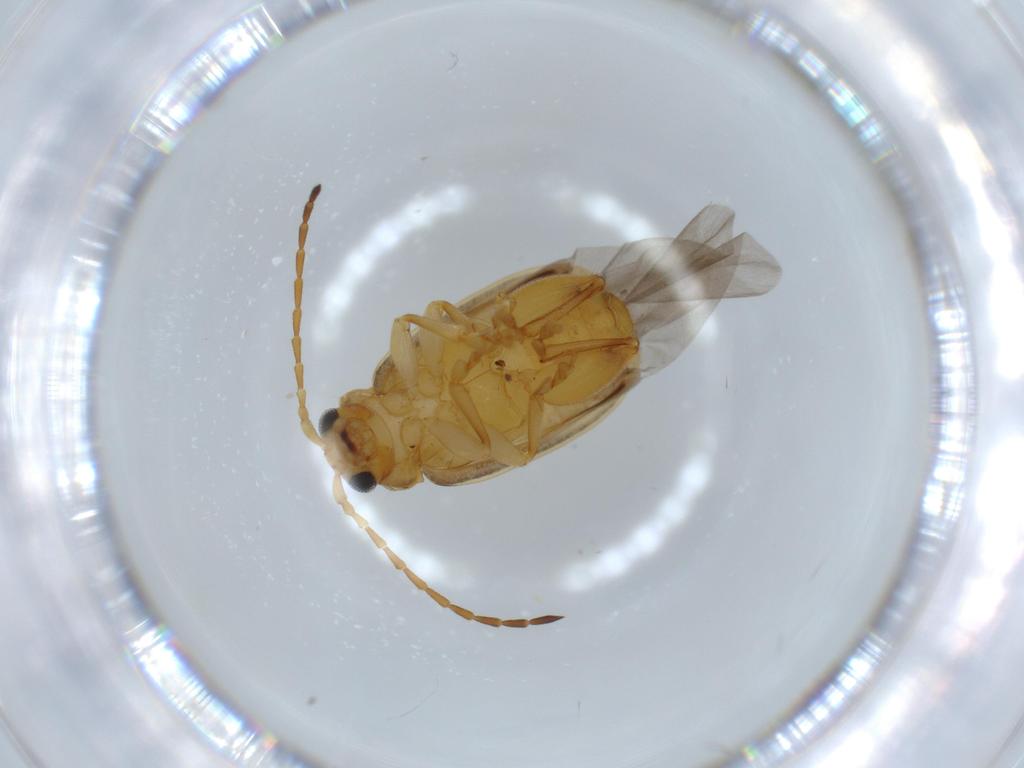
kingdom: Animalia
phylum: Arthropoda
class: Insecta
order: Coleoptera
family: Chrysomelidae
